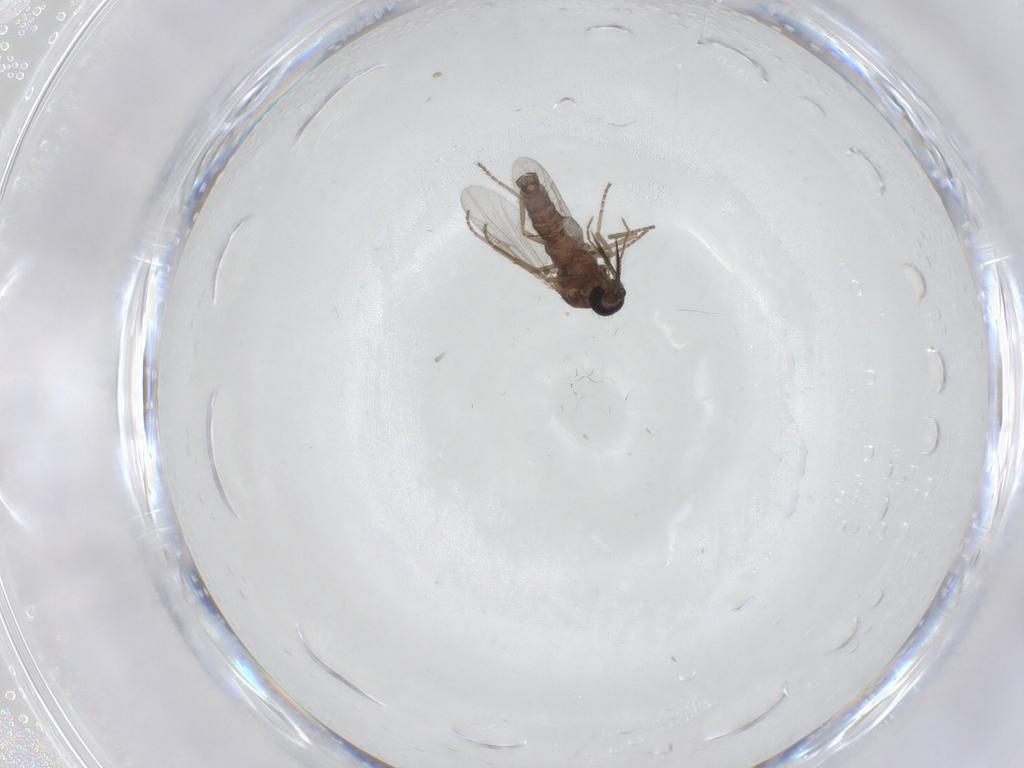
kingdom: Animalia
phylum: Arthropoda
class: Insecta
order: Diptera
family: Ceratopogonidae
